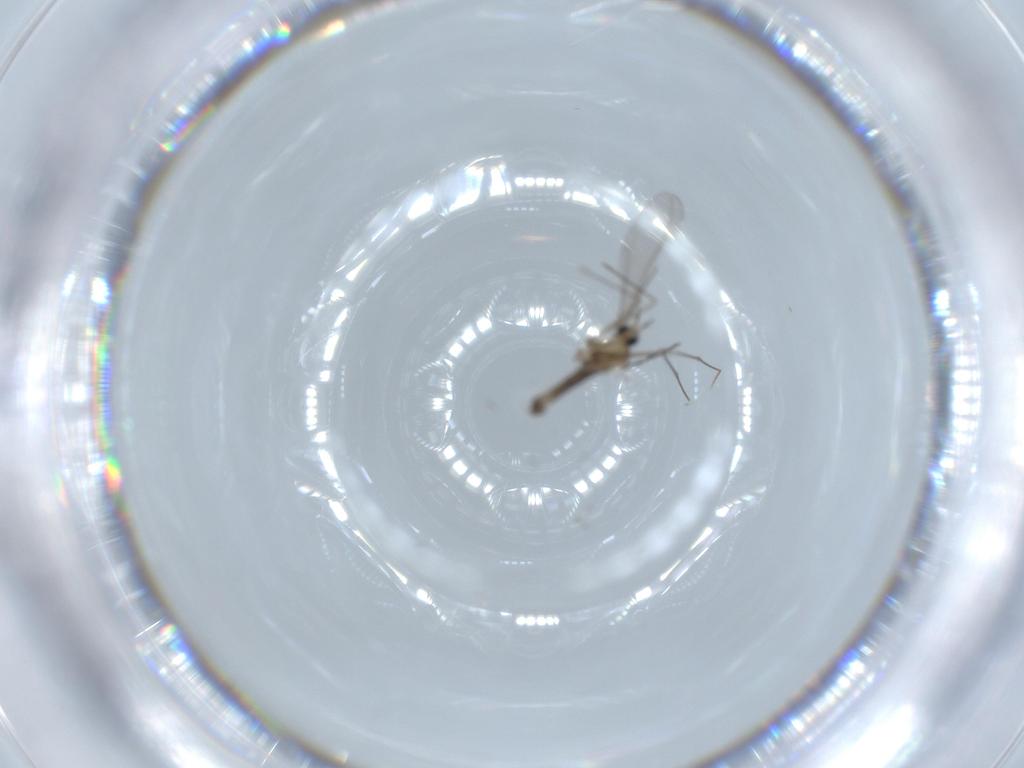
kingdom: Animalia
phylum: Arthropoda
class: Insecta
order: Diptera
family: Cecidomyiidae
